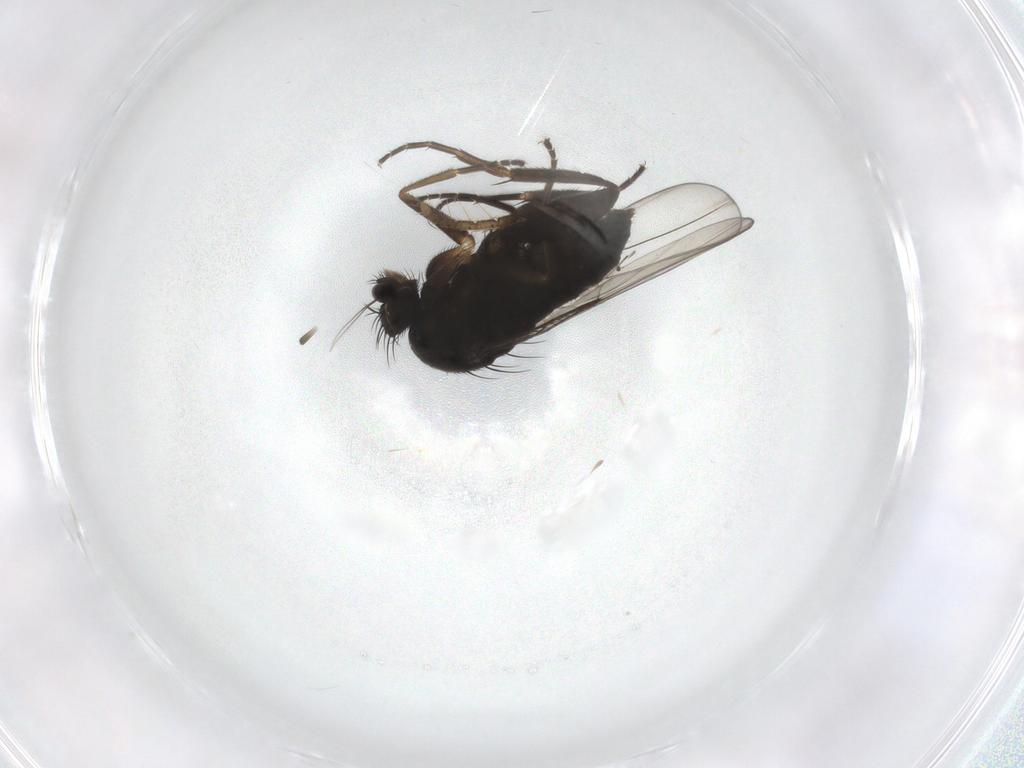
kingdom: Animalia
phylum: Arthropoda
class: Insecta
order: Diptera
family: Phoridae
